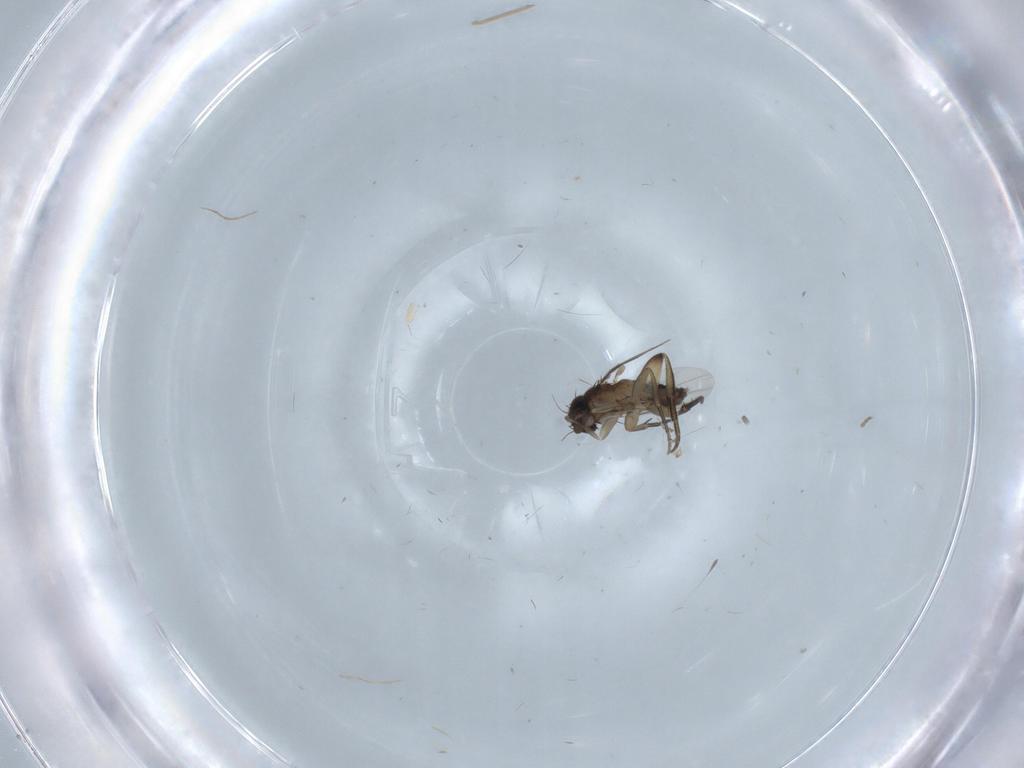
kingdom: Animalia
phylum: Arthropoda
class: Insecta
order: Diptera
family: Phoridae
